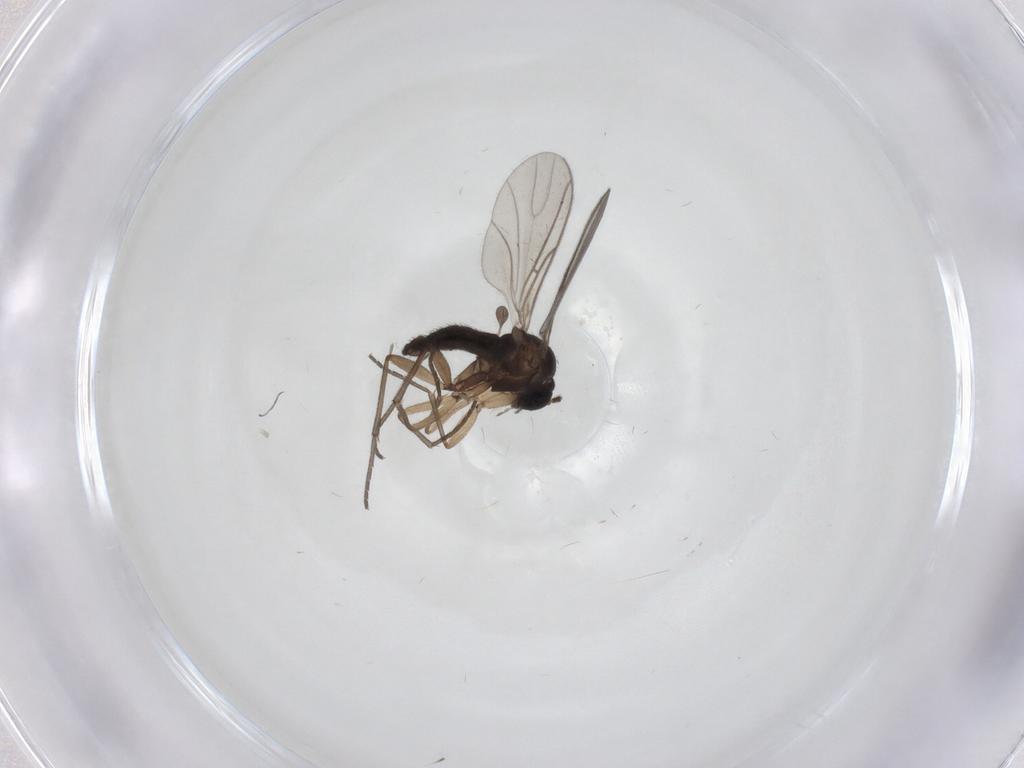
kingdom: Animalia
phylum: Arthropoda
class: Insecta
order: Diptera
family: Sciaridae
